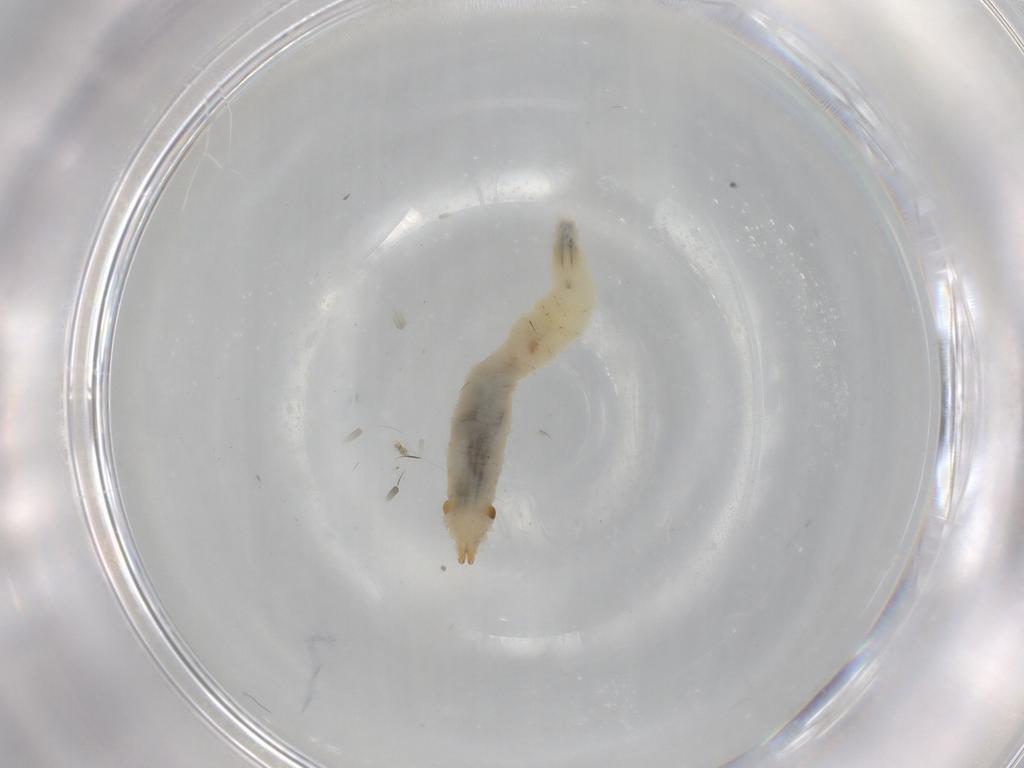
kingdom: Animalia
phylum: Arthropoda
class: Insecta
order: Diptera
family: Drosophilidae
